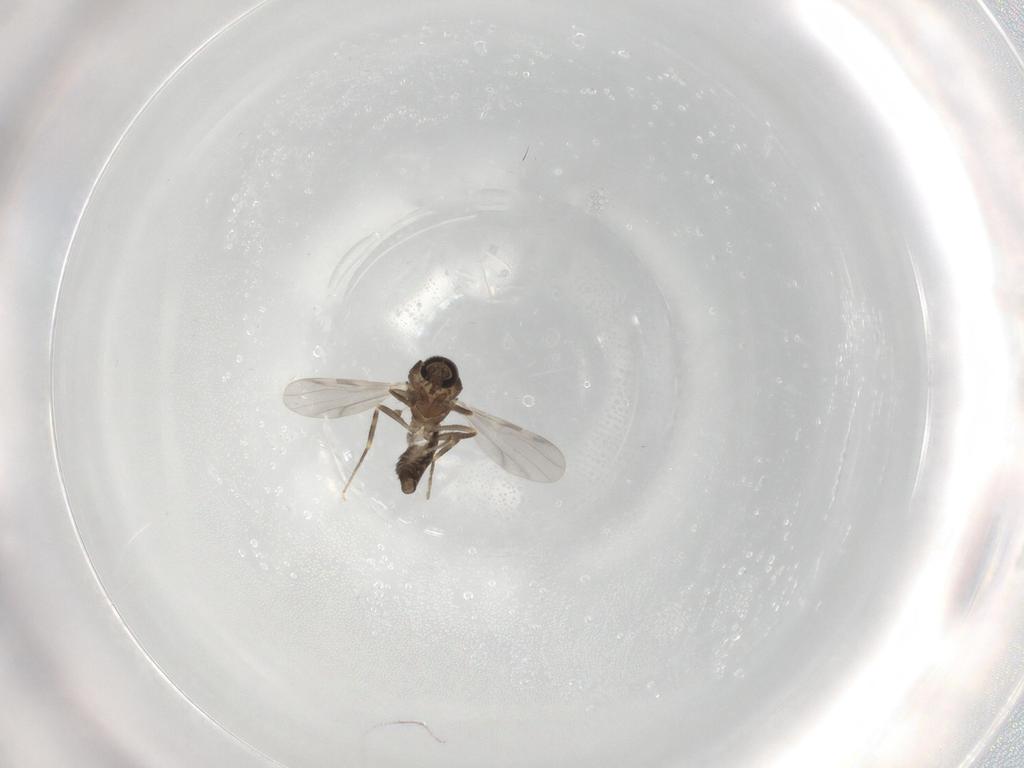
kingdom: Animalia
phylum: Arthropoda
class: Insecta
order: Diptera
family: Ceratopogonidae
